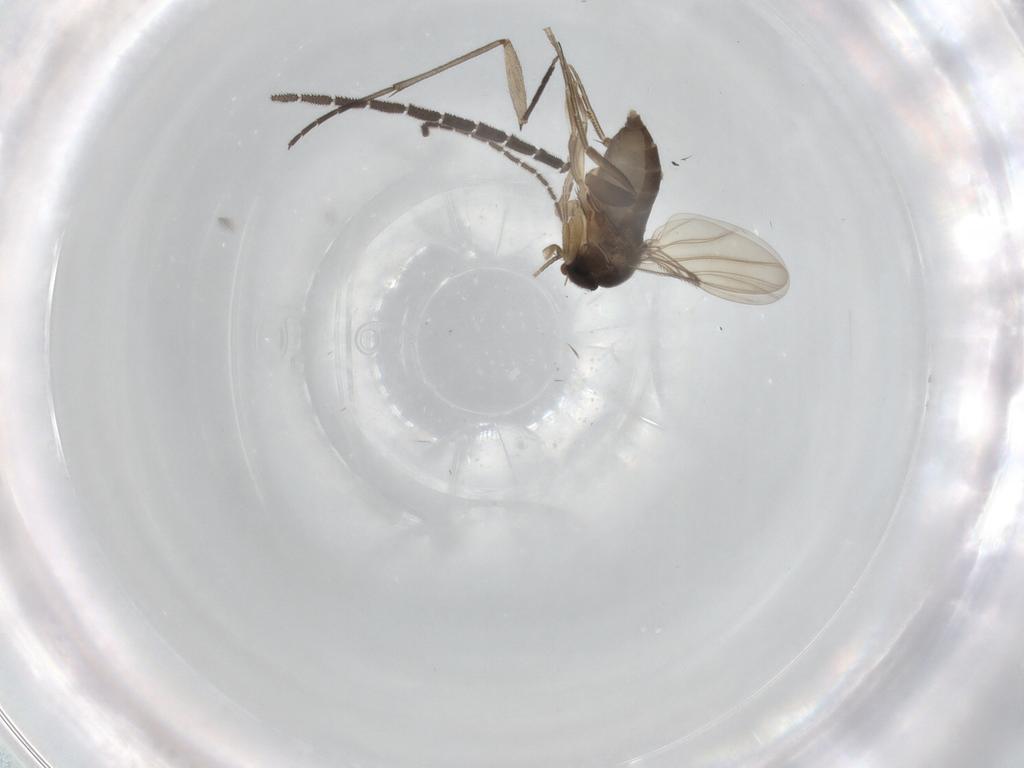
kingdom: Animalia
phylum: Arthropoda
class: Insecta
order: Diptera
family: Phoridae
